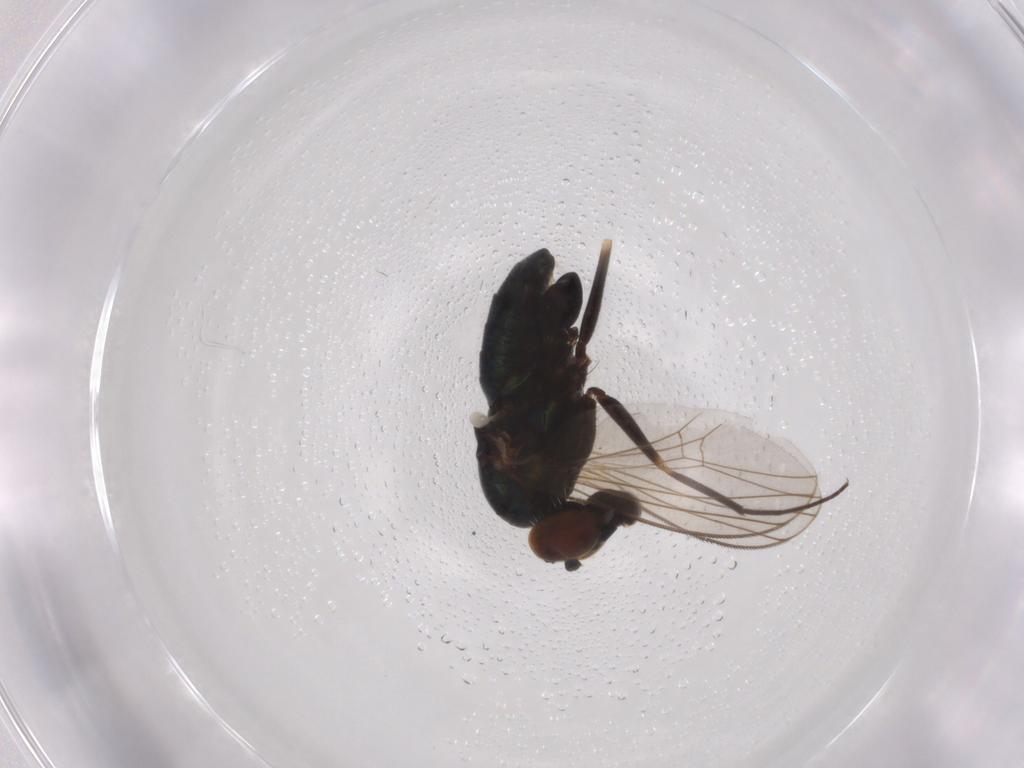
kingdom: Animalia
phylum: Arthropoda
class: Insecta
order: Diptera
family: Dolichopodidae
